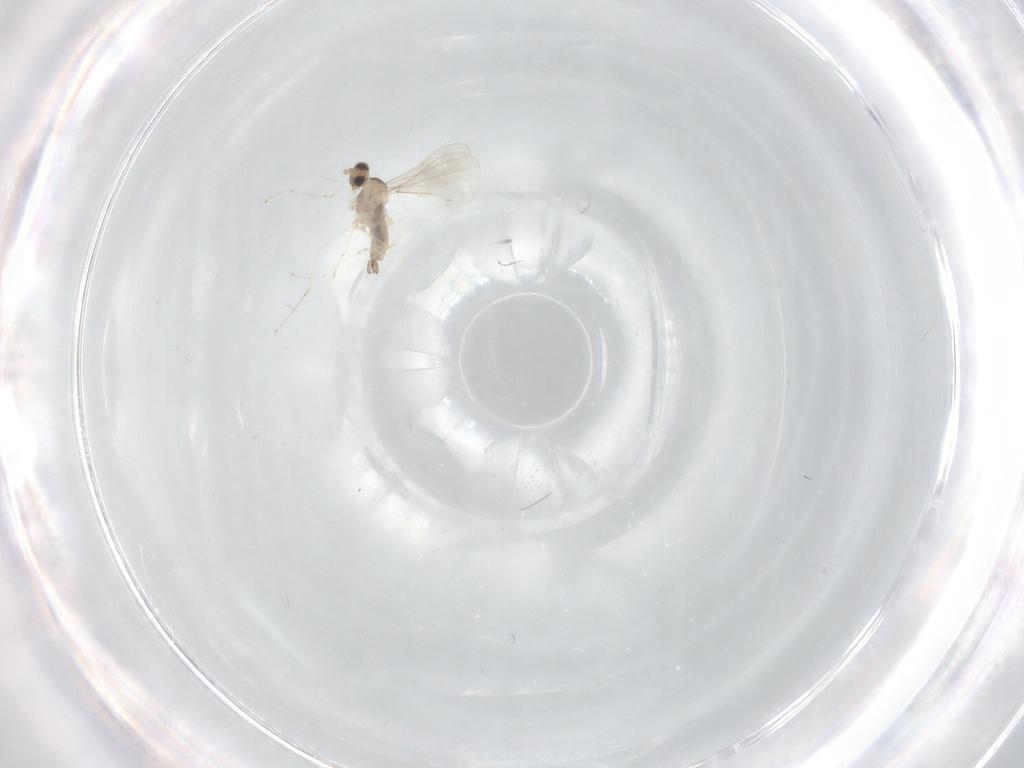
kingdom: Animalia
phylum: Arthropoda
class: Insecta
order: Diptera
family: Cecidomyiidae
